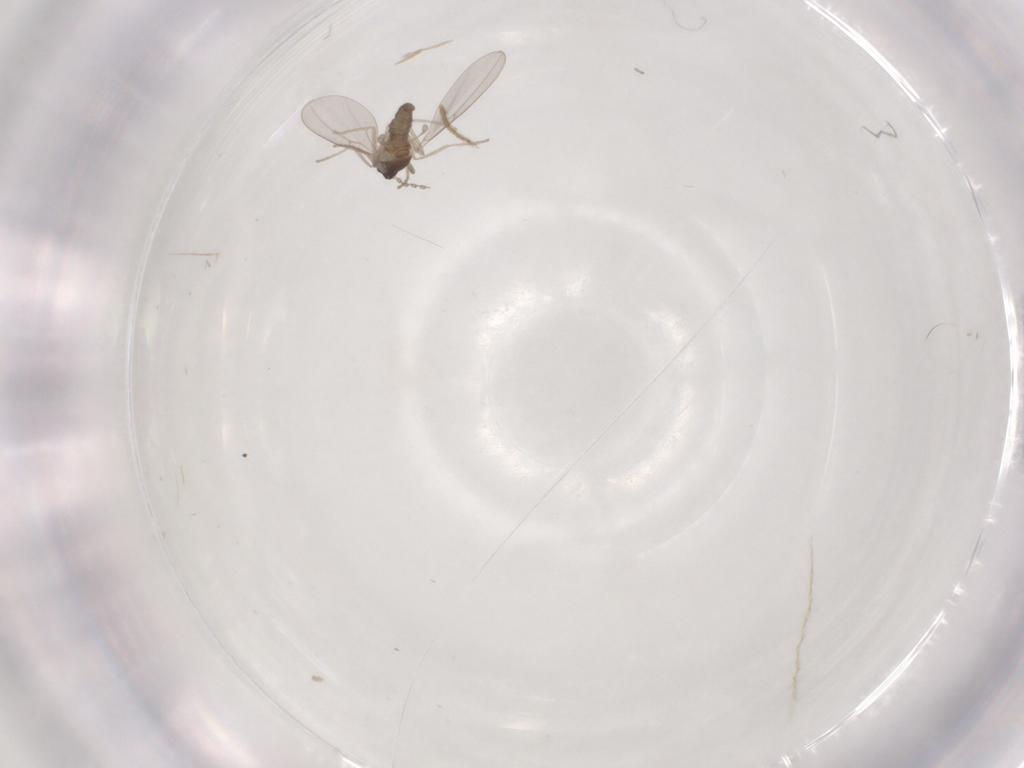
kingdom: Animalia
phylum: Arthropoda
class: Insecta
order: Diptera
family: Cecidomyiidae
